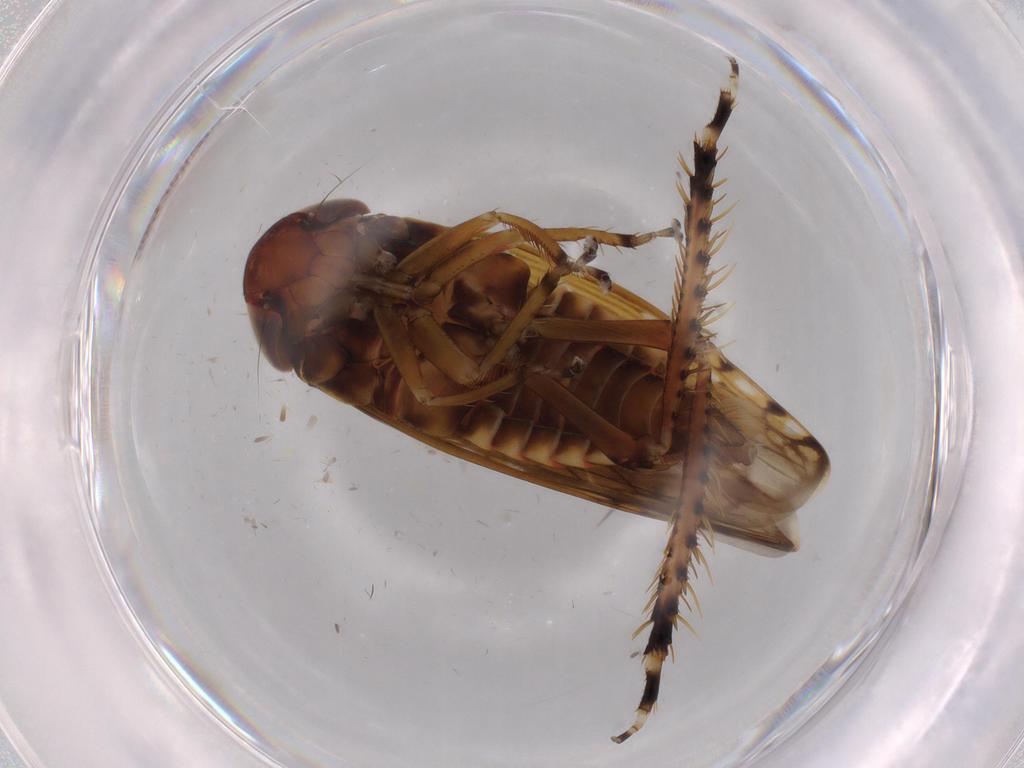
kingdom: Animalia
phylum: Arthropoda
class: Insecta
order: Hemiptera
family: Cicadellidae
